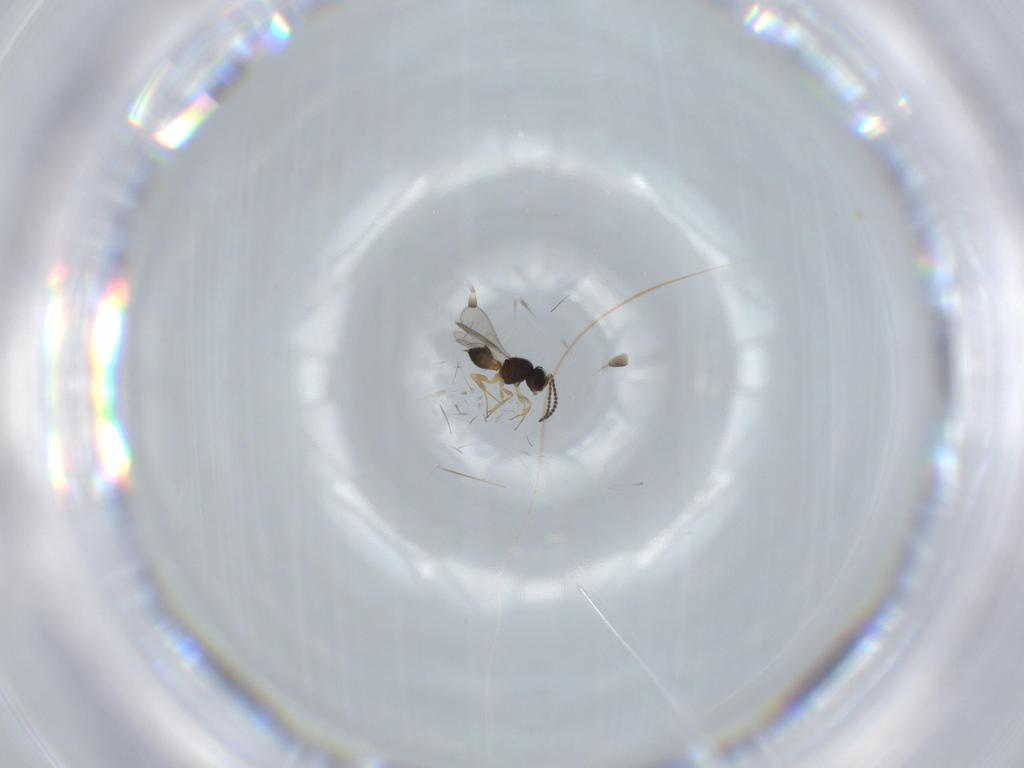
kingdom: Animalia
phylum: Arthropoda
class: Insecta
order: Hymenoptera
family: Scelionidae
